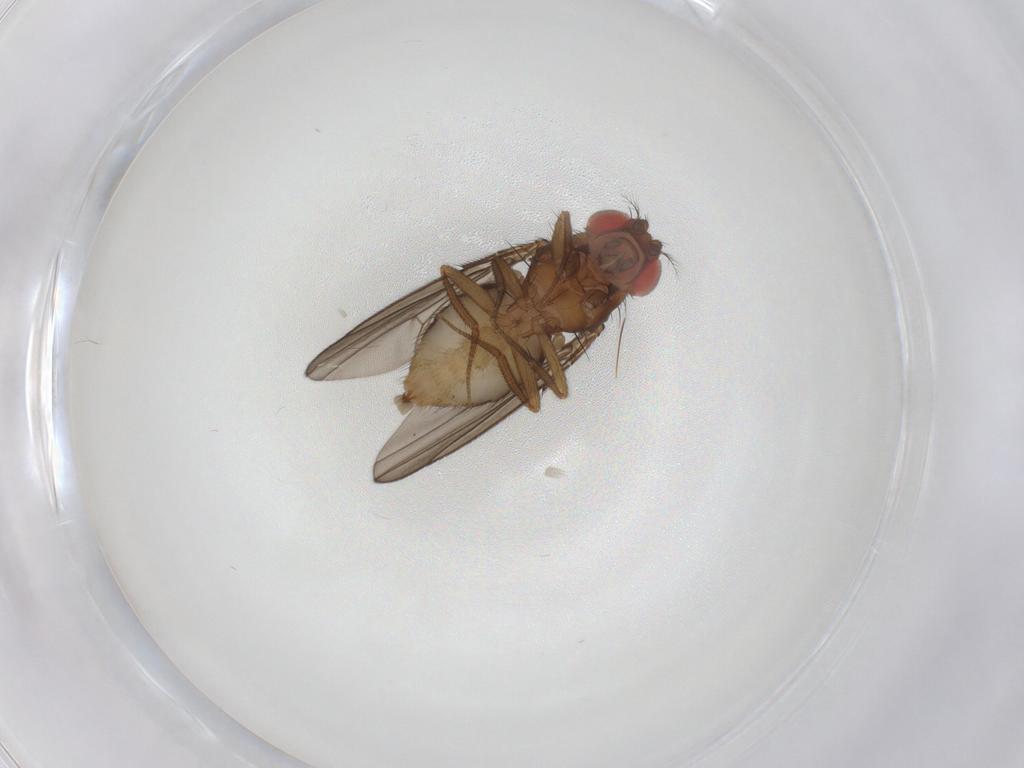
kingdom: Animalia
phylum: Arthropoda
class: Insecta
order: Diptera
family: Drosophilidae
